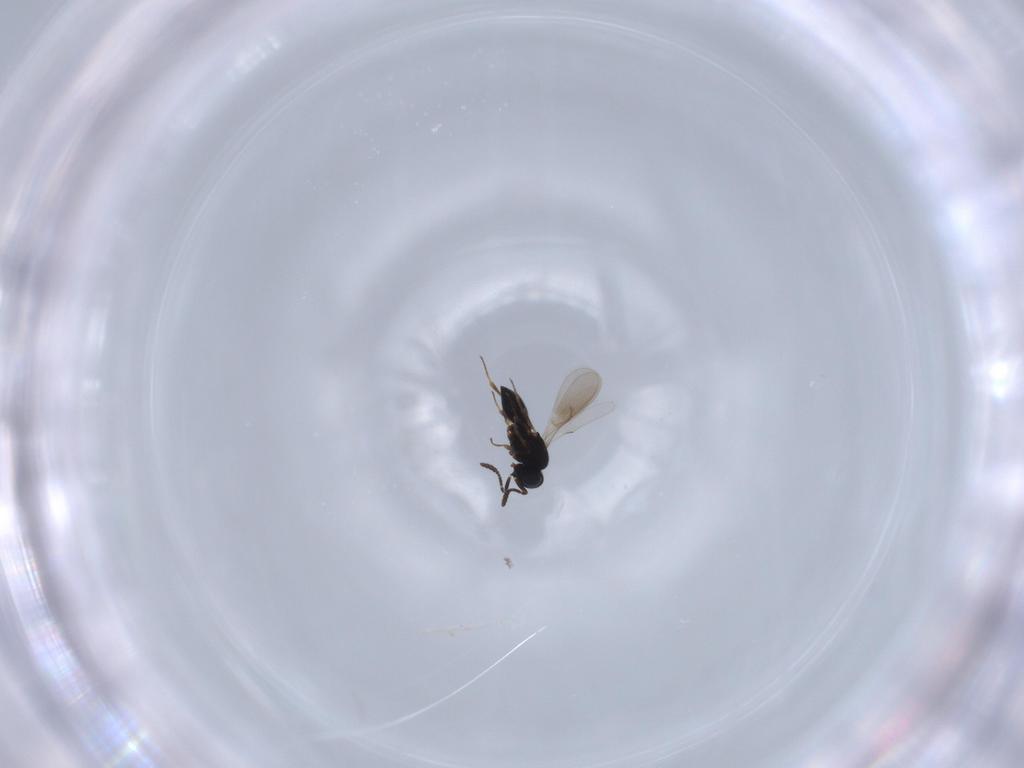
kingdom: Animalia
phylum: Arthropoda
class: Insecta
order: Hymenoptera
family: Scelionidae
